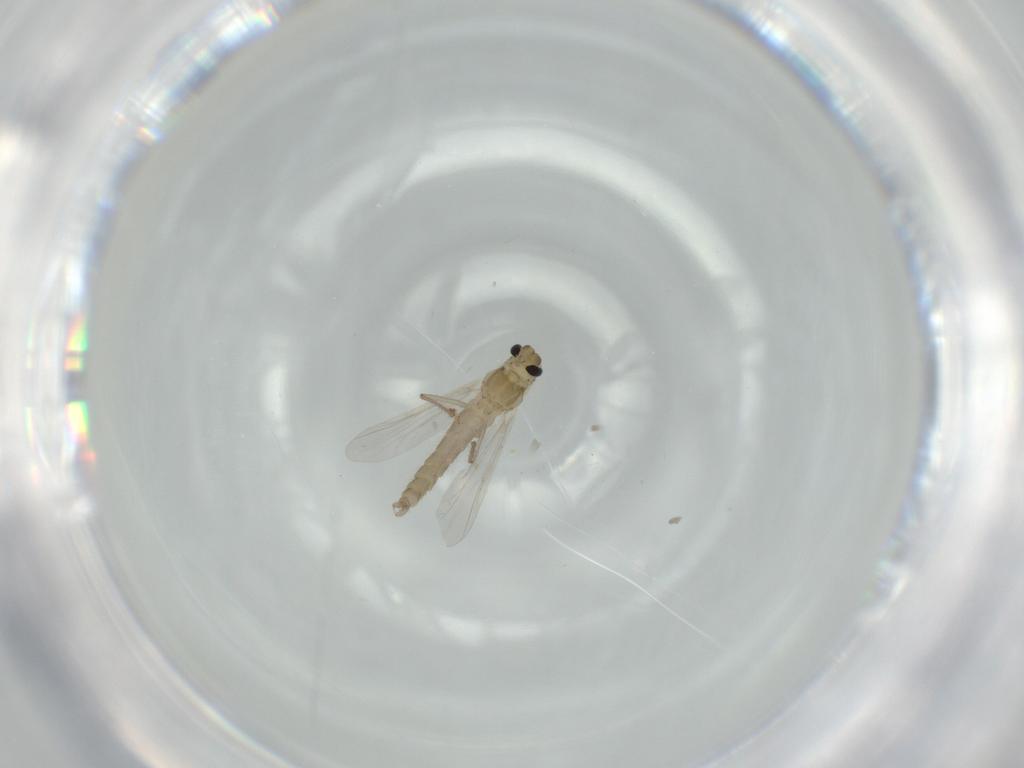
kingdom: Animalia
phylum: Arthropoda
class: Insecta
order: Diptera
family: Chironomidae
